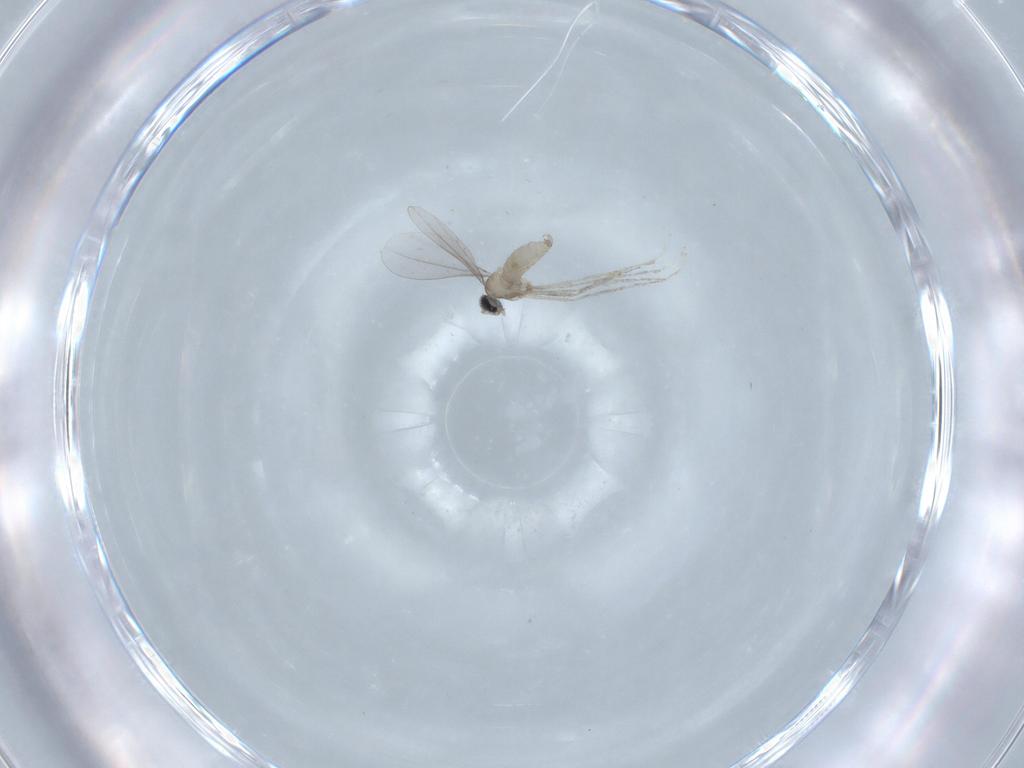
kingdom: Animalia
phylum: Arthropoda
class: Insecta
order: Diptera
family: Cecidomyiidae
